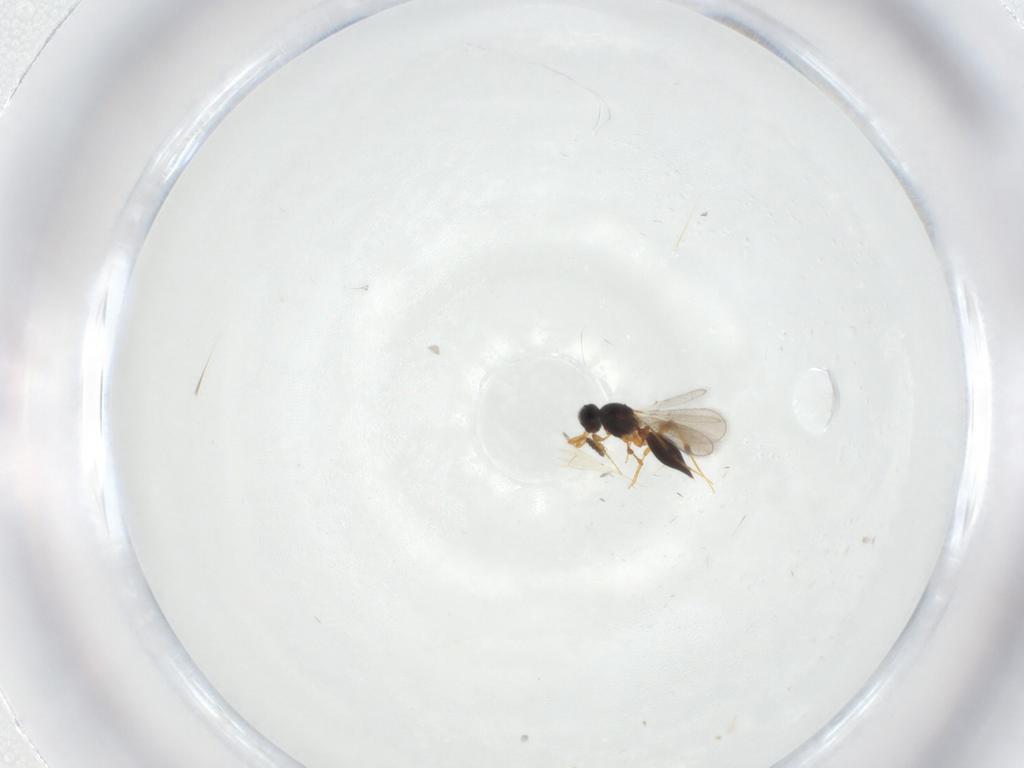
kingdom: Animalia
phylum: Arthropoda
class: Insecta
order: Hymenoptera
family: Platygastridae
